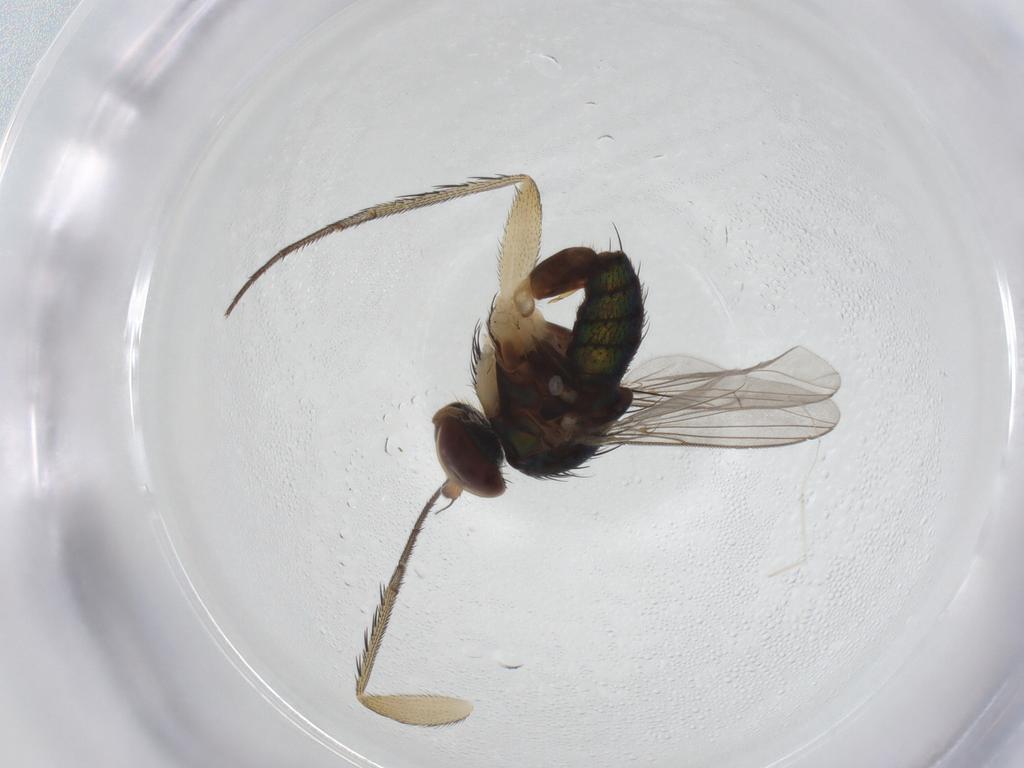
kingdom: Animalia
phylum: Arthropoda
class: Insecta
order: Diptera
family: Dolichopodidae
